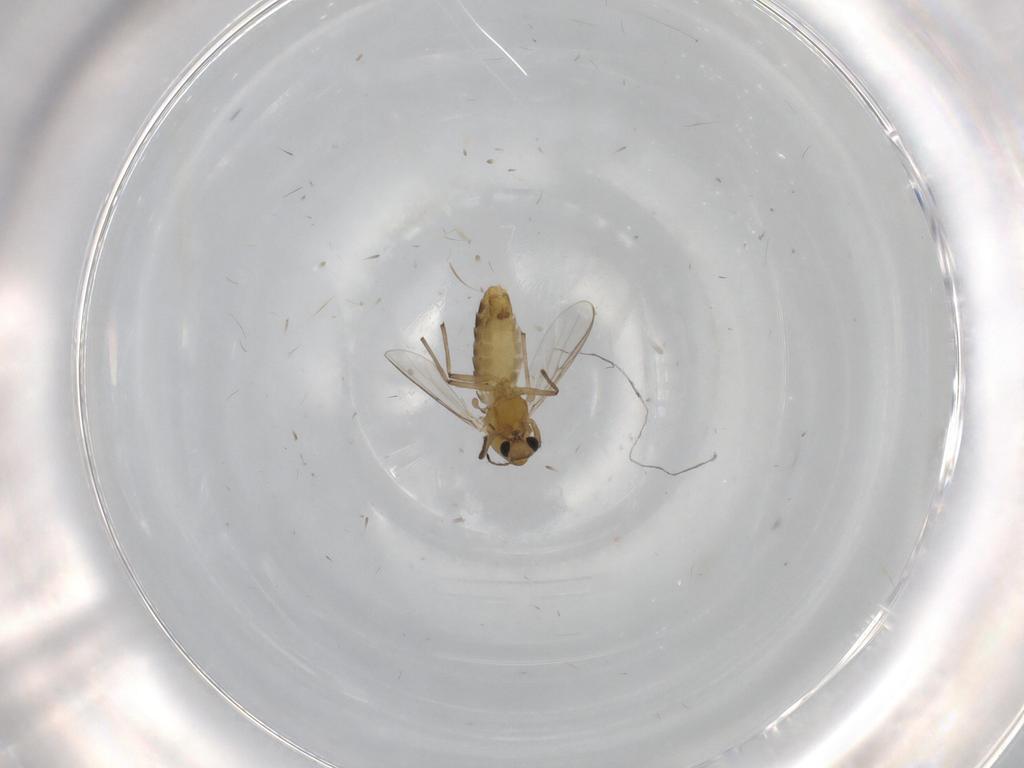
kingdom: Animalia
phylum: Arthropoda
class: Insecta
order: Diptera
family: Chironomidae
